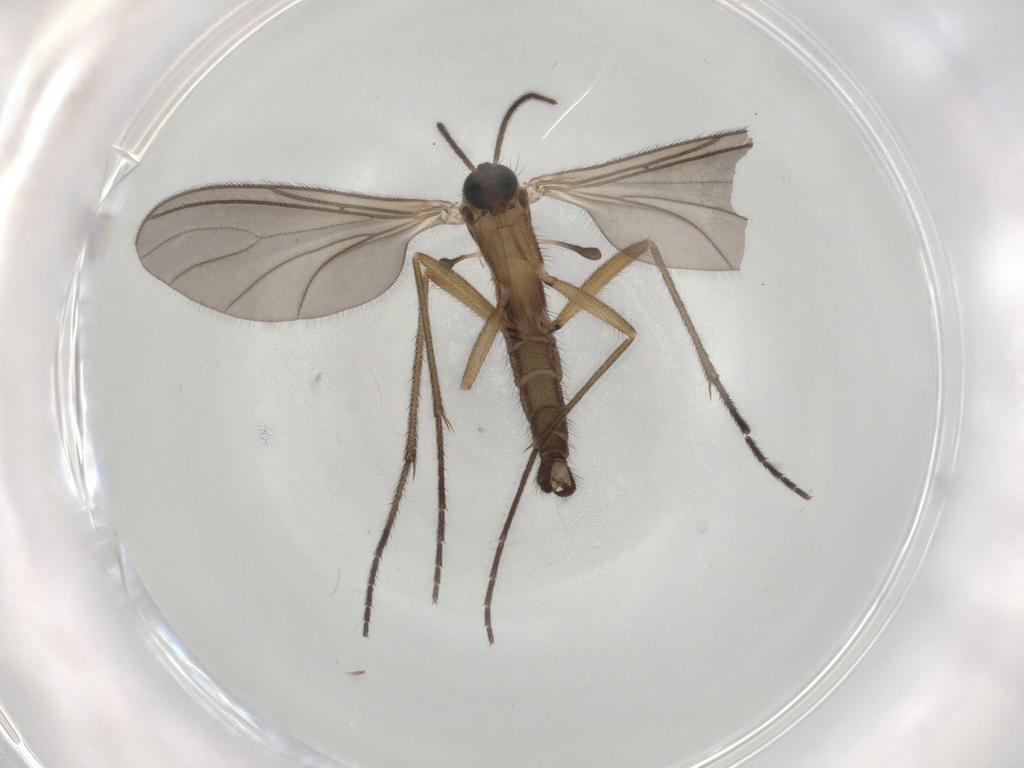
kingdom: Animalia
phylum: Arthropoda
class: Insecta
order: Diptera
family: Sciaridae
